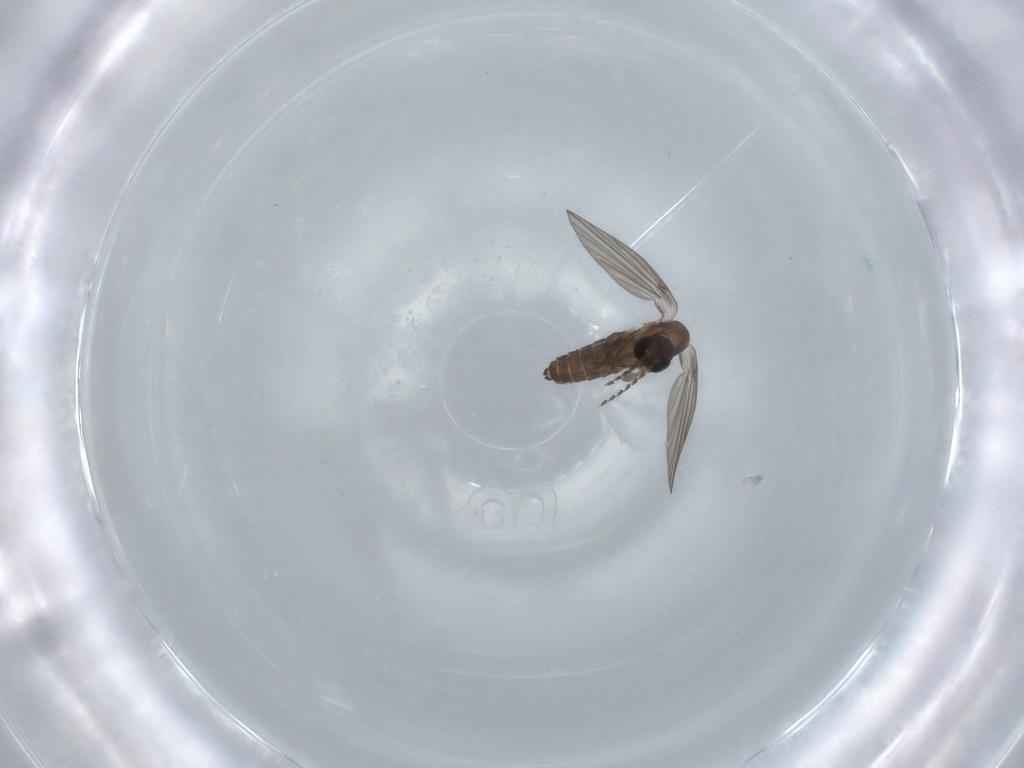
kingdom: Animalia
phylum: Arthropoda
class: Insecta
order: Diptera
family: Psychodidae
